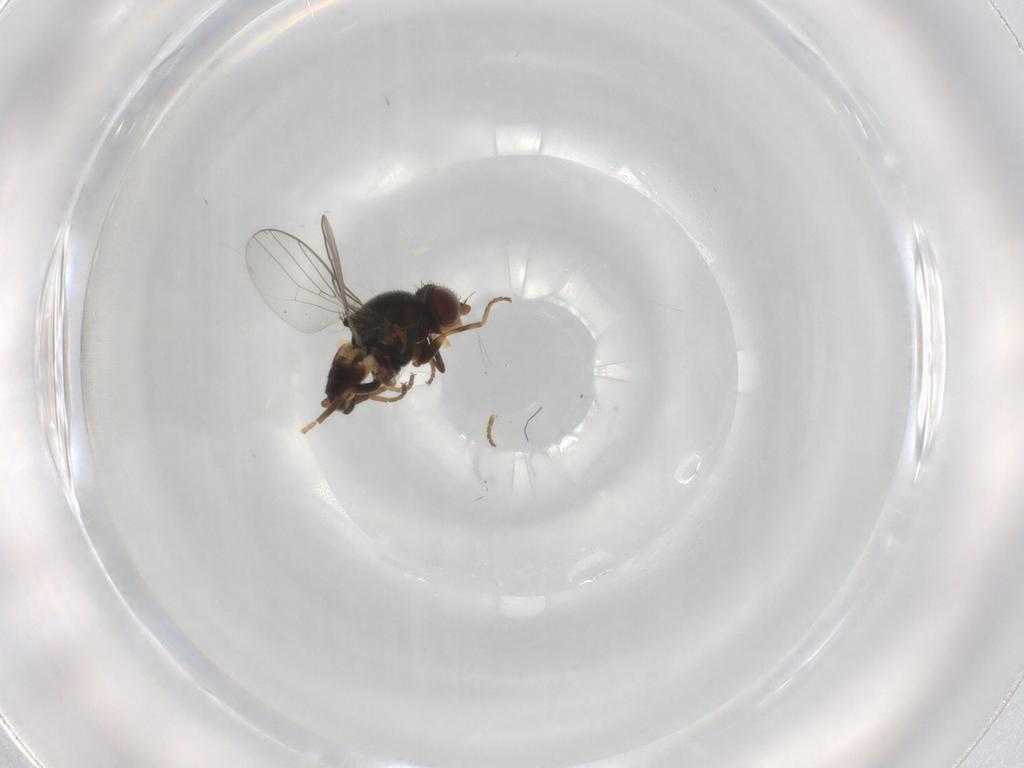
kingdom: Animalia
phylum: Arthropoda
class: Insecta
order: Diptera
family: Chloropidae
